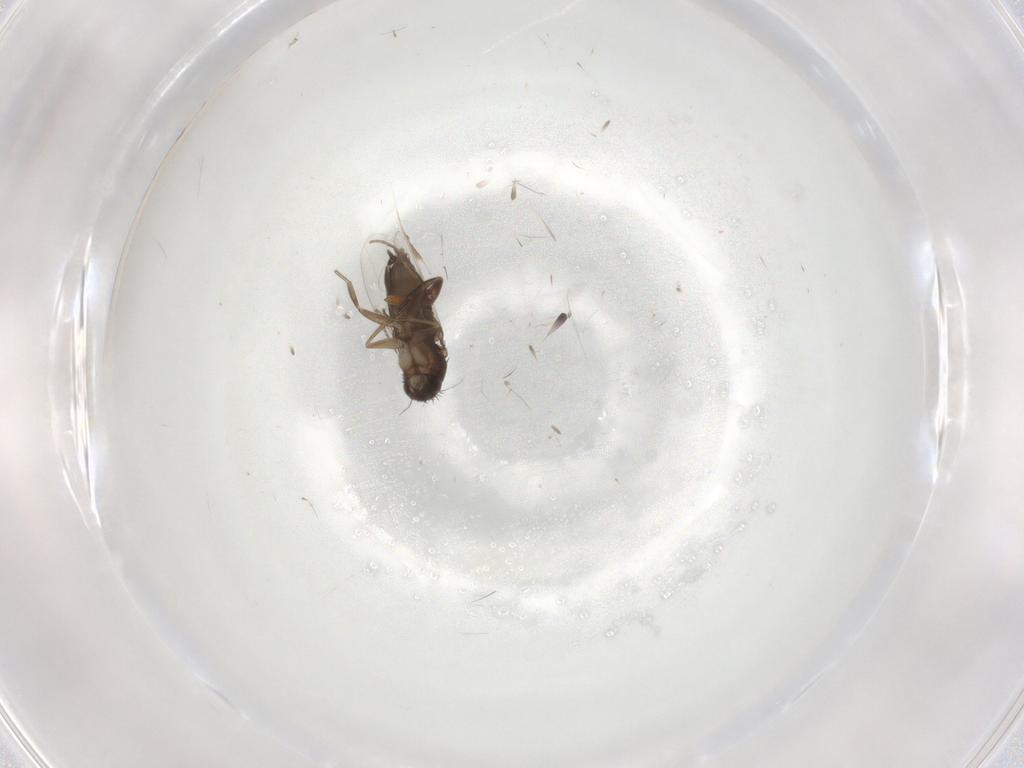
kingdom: Animalia
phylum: Arthropoda
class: Insecta
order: Diptera
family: Phoridae
